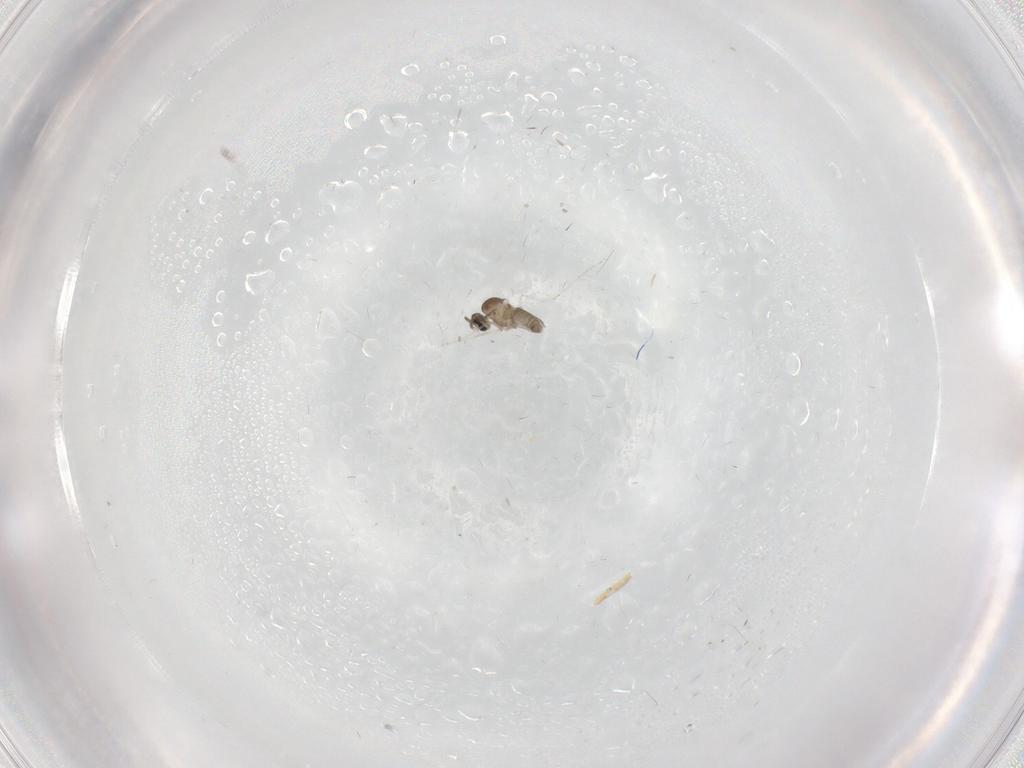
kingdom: Animalia
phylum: Arthropoda
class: Insecta
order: Diptera
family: Cecidomyiidae
